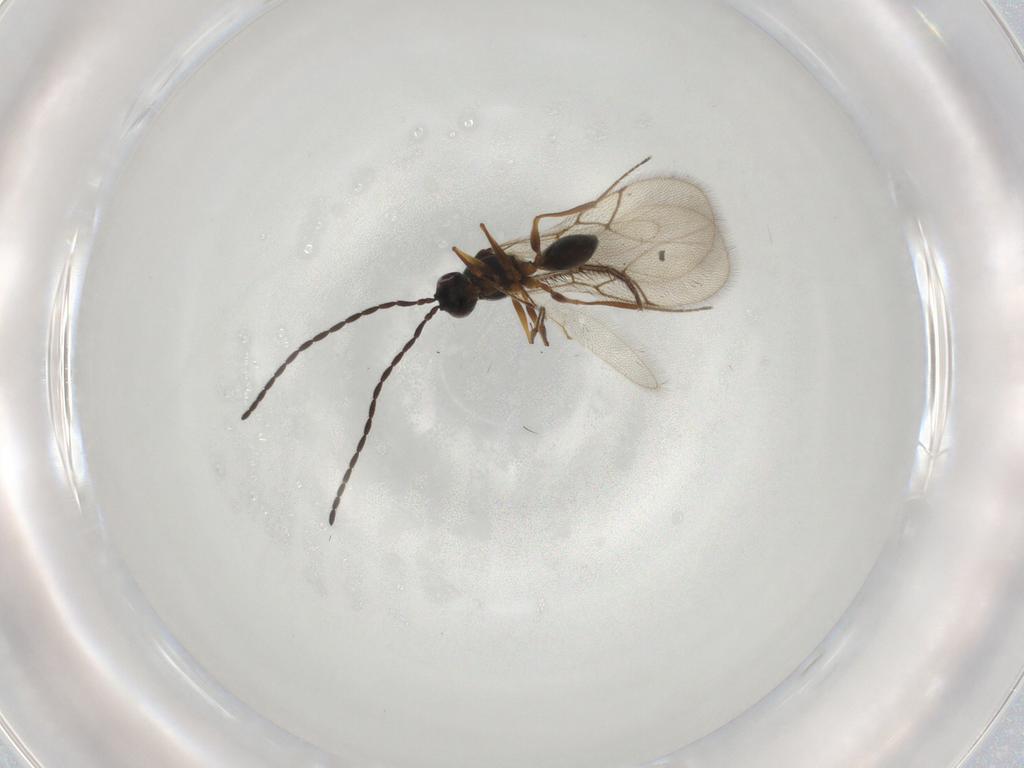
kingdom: Animalia
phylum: Arthropoda
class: Insecta
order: Hymenoptera
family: Figitidae
